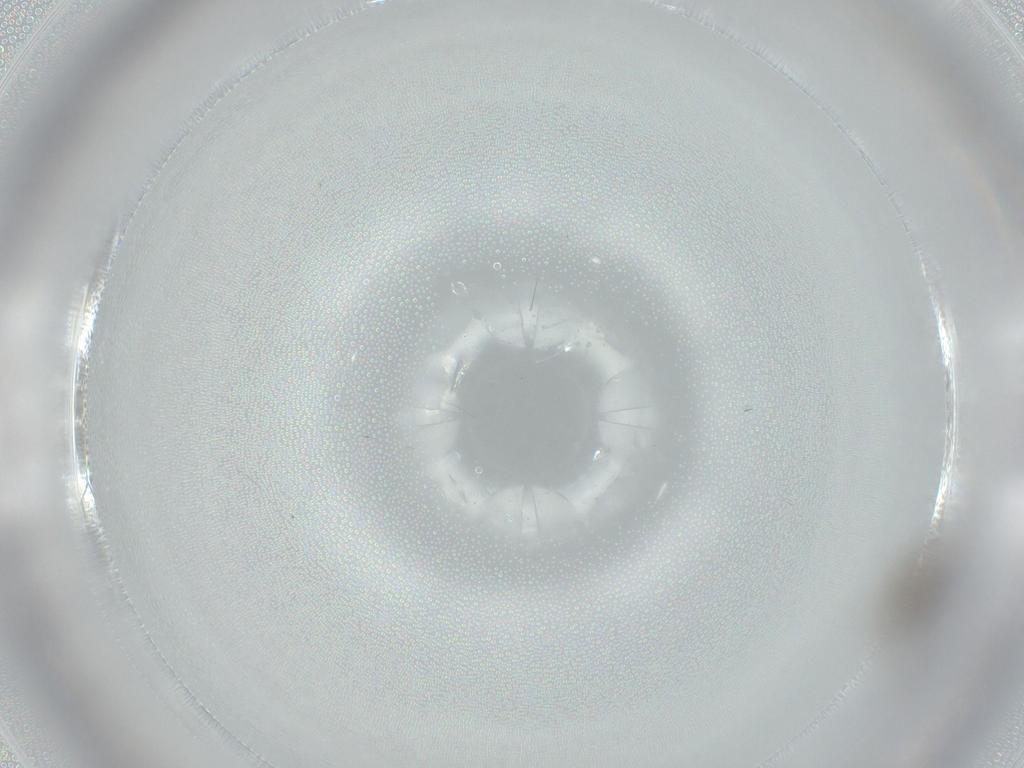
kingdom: Animalia
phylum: Arthropoda
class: Insecta
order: Diptera
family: Cecidomyiidae
